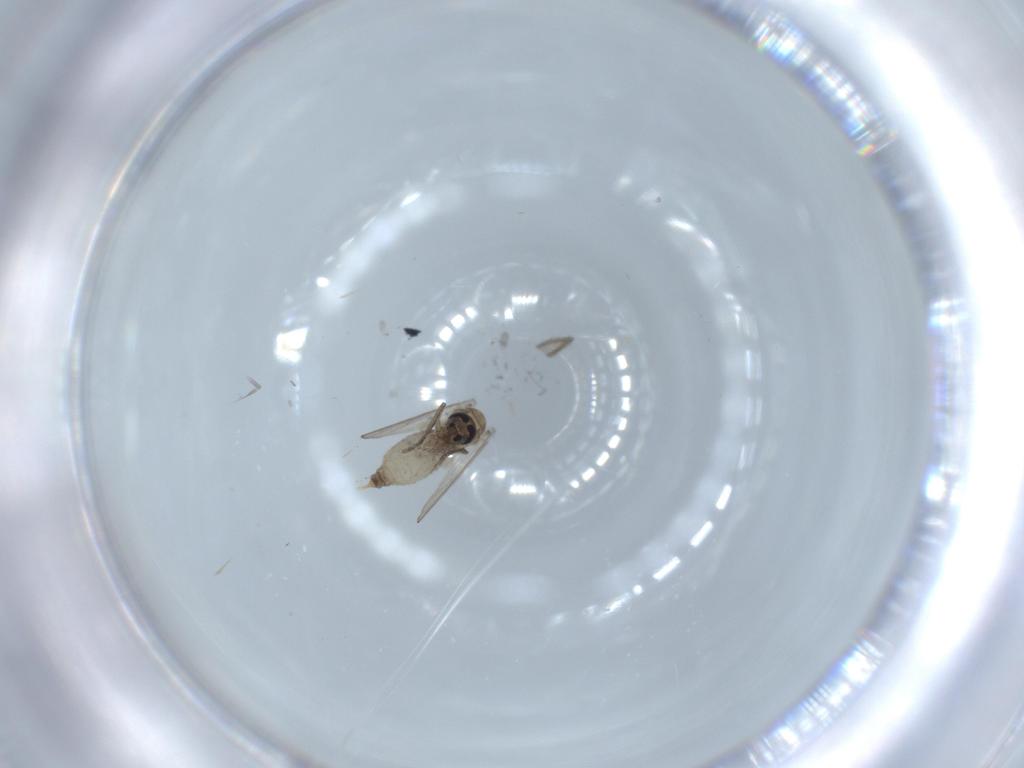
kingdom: Animalia
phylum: Arthropoda
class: Insecta
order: Diptera
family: Psychodidae
